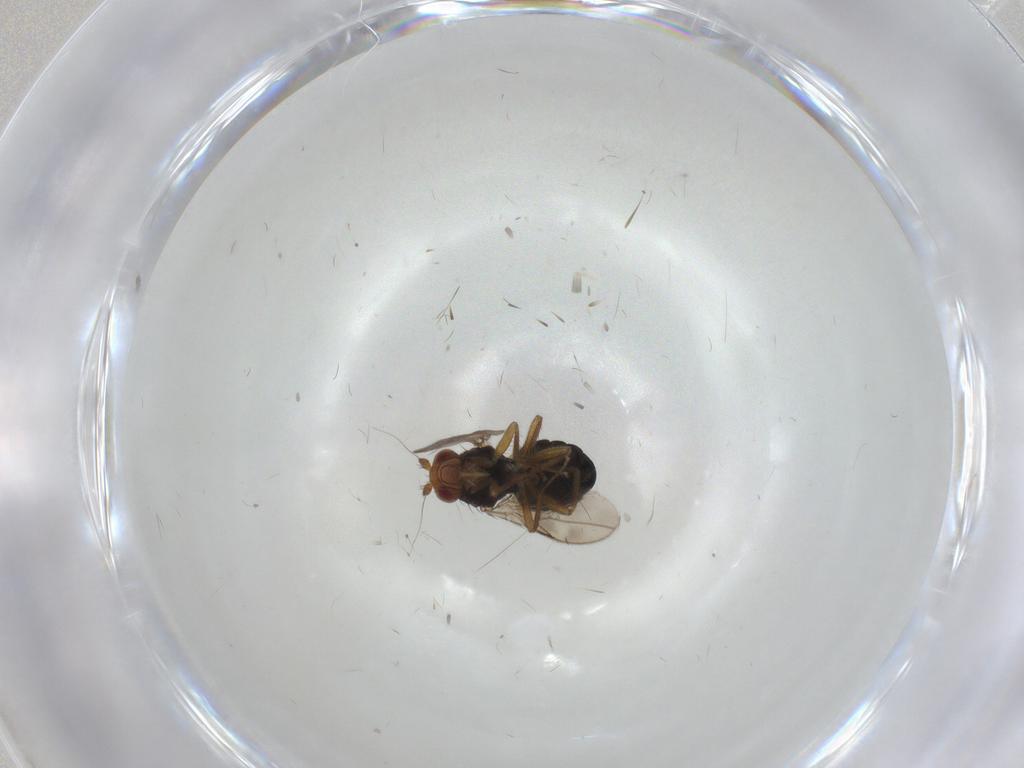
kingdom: Animalia
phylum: Arthropoda
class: Insecta
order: Diptera
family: Sphaeroceridae
